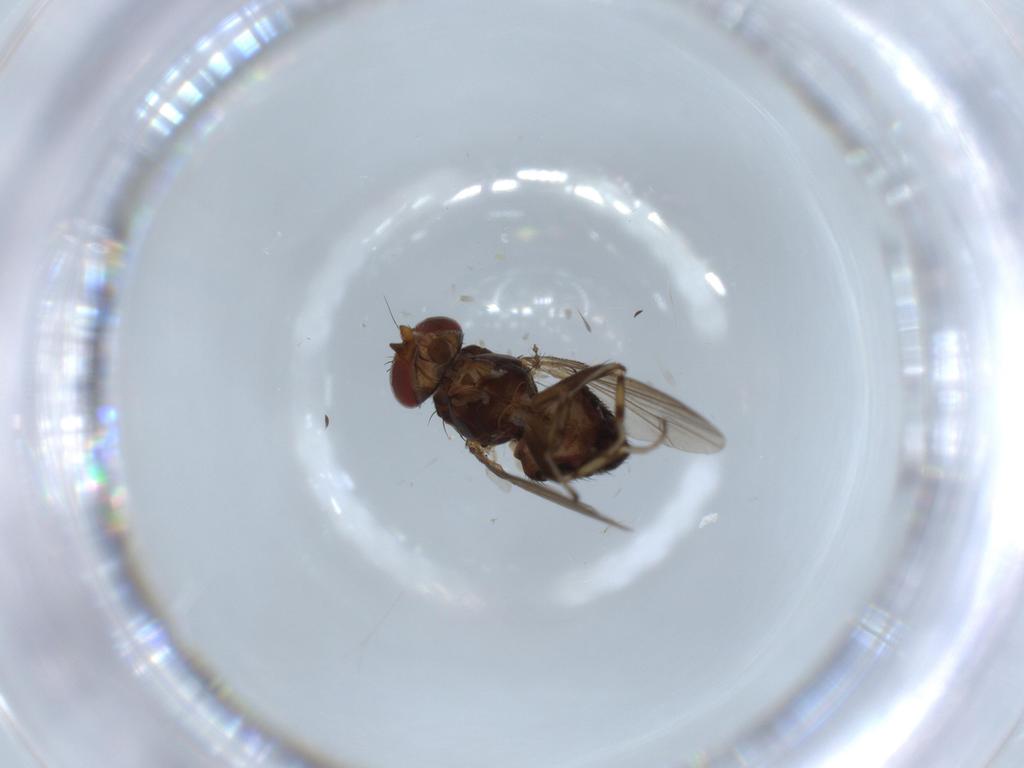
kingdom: Animalia
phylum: Arthropoda
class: Insecta
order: Diptera
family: Heleomyzidae
